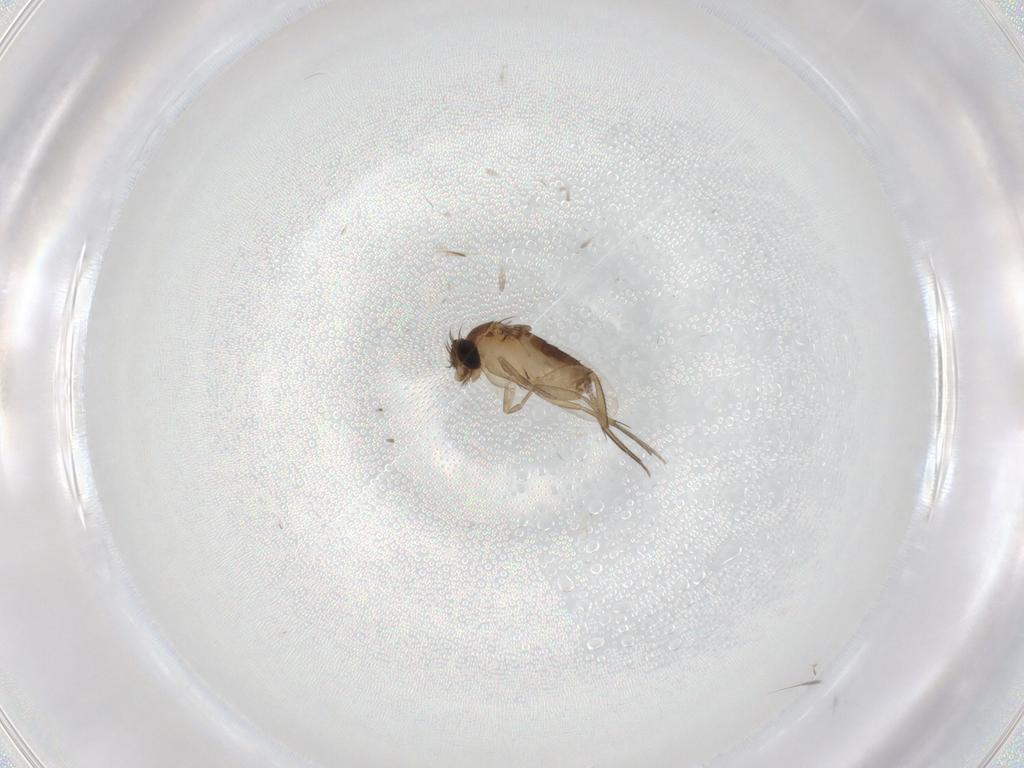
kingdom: Animalia
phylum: Arthropoda
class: Insecta
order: Diptera
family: Phoridae
